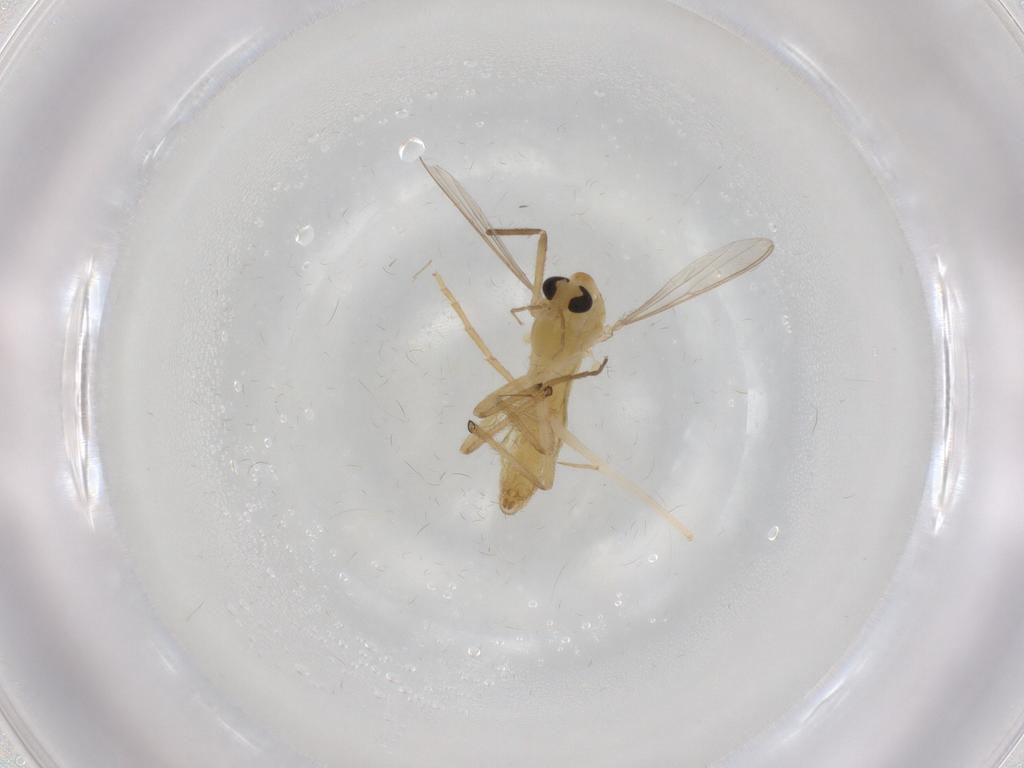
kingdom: Animalia
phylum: Arthropoda
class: Insecta
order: Diptera
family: Chironomidae
